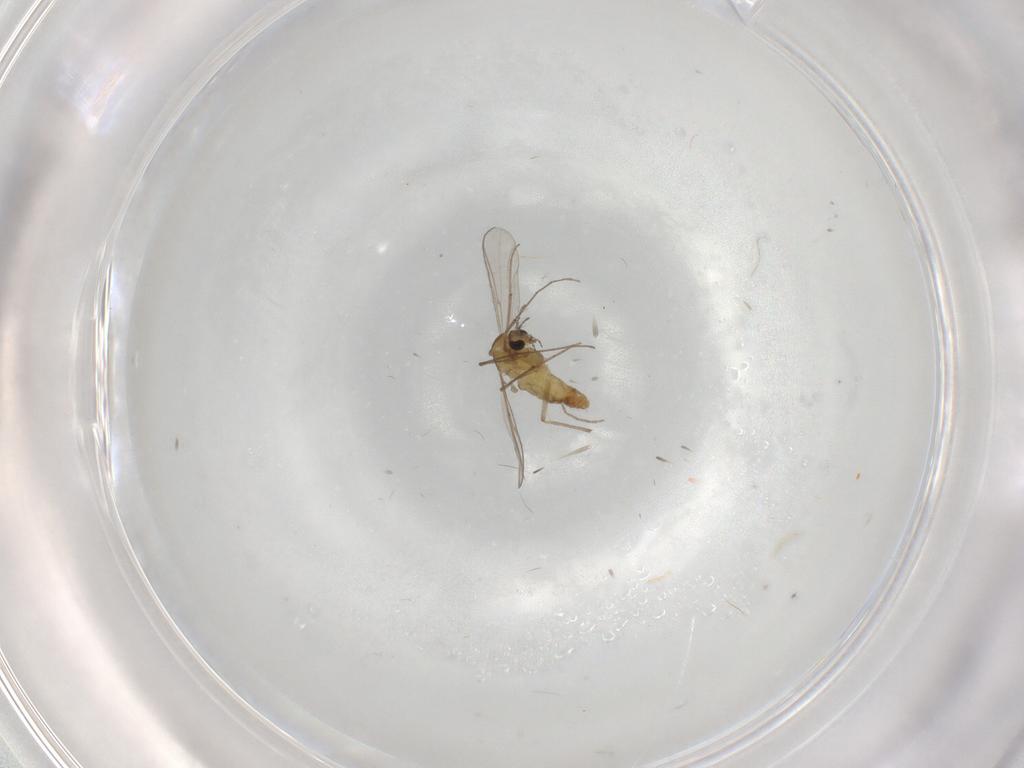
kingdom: Animalia
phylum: Arthropoda
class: Insecta
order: Diptera
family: Chironomidae
